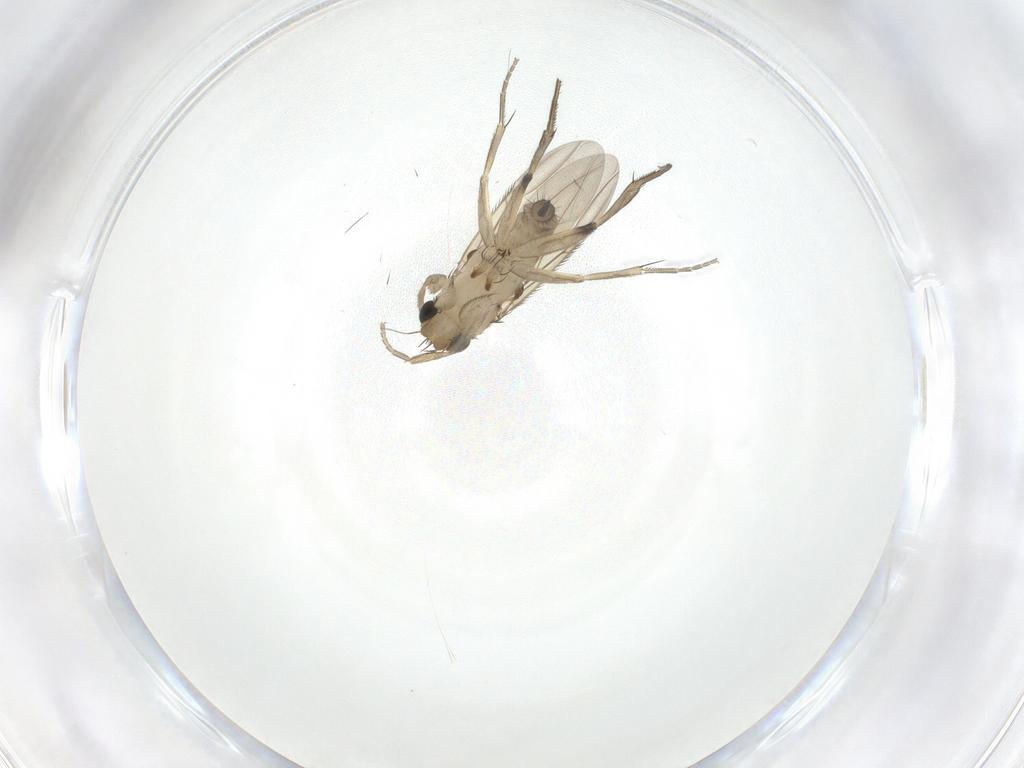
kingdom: Animalia
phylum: Arthropoda
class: Insecta
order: Diptera
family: Phoridae
